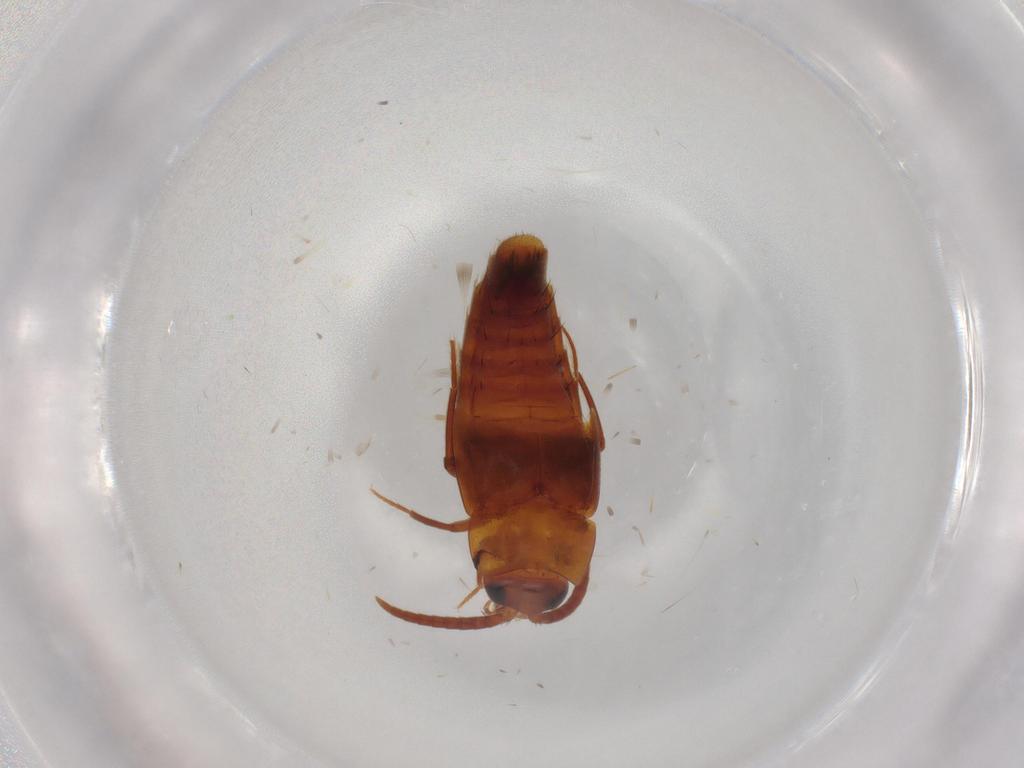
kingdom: Animalia
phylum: Arthropoda
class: Insecta
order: Coleoptera
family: Staphylinidae
